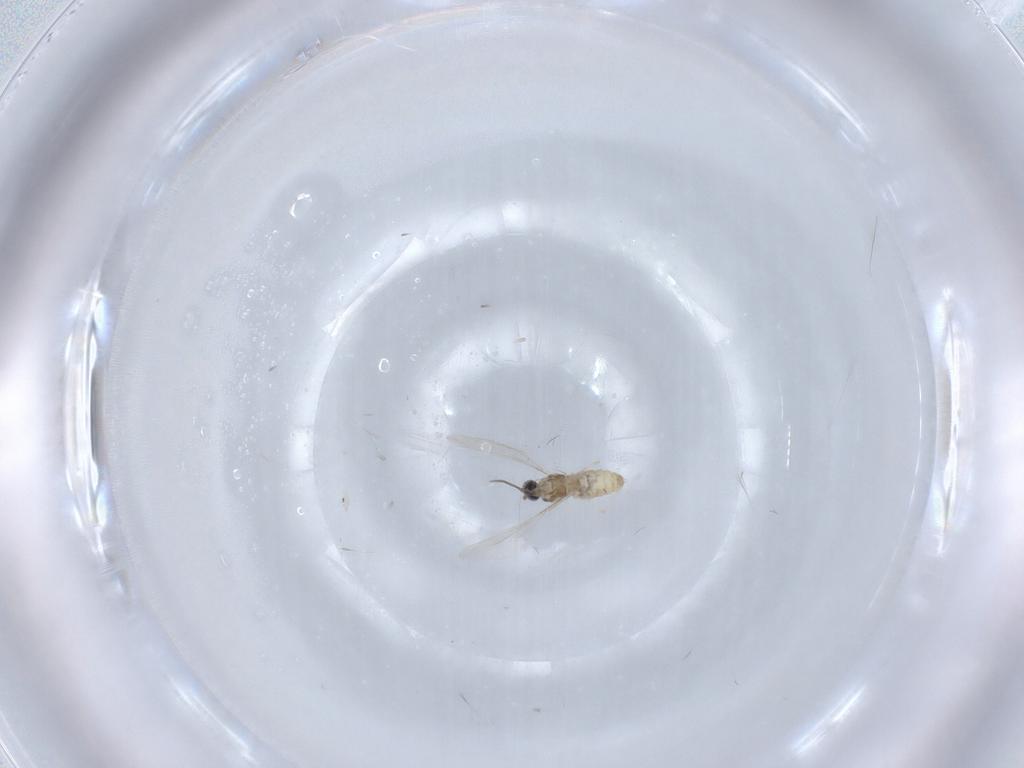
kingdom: Animalia
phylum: Arthropoda
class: Insecta
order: Diptera
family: Cecidomyiidae
